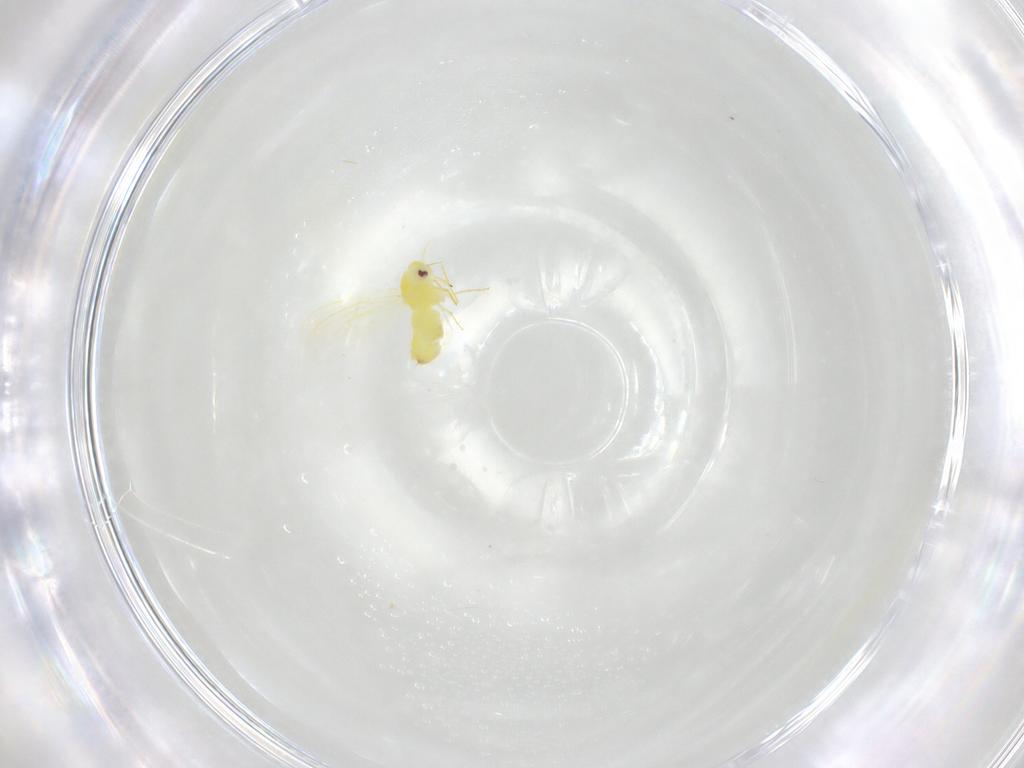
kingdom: Animalia
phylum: Arthropoda
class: Insecta
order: Hemiptera
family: Aleyrodidae
